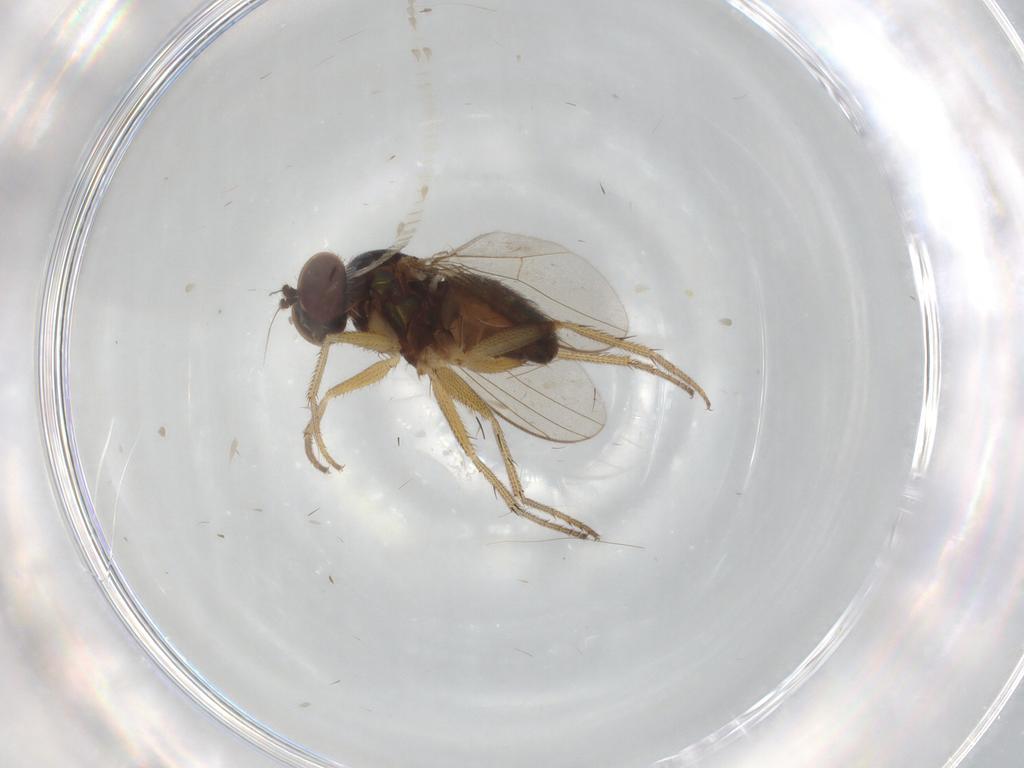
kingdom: Animalia
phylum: Arthropoda
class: Insecta
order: Diptera
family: Dolichopodidae
